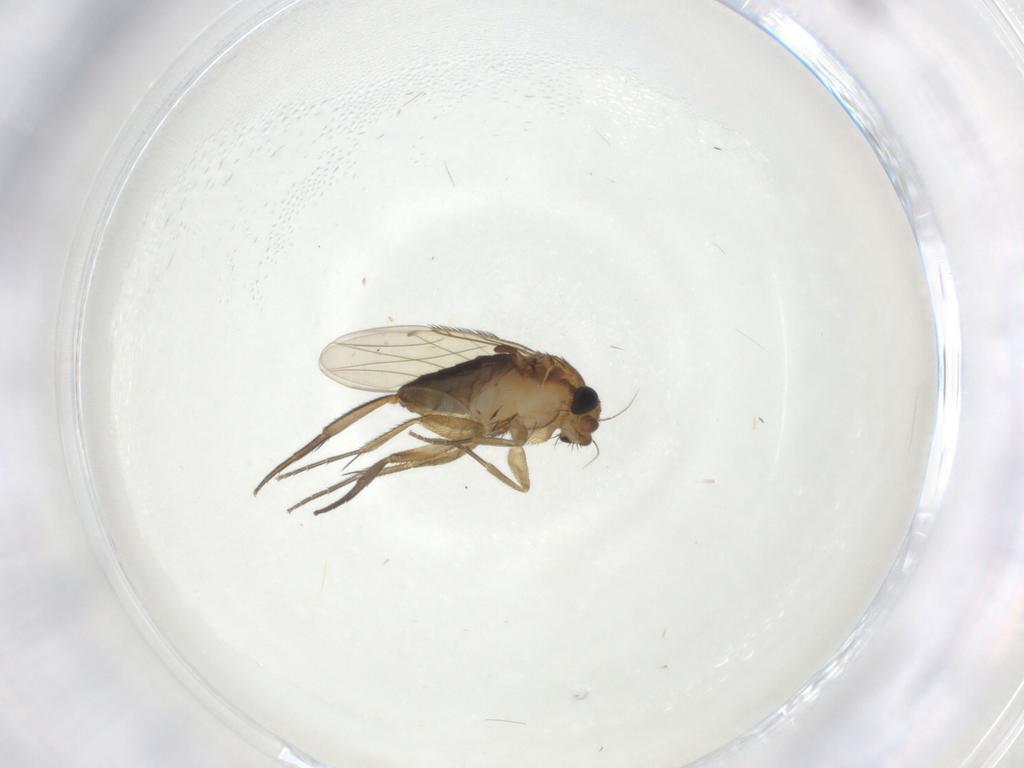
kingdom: Animalia
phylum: Arthropoda
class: Insecta
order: Diptera
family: Phoridae
